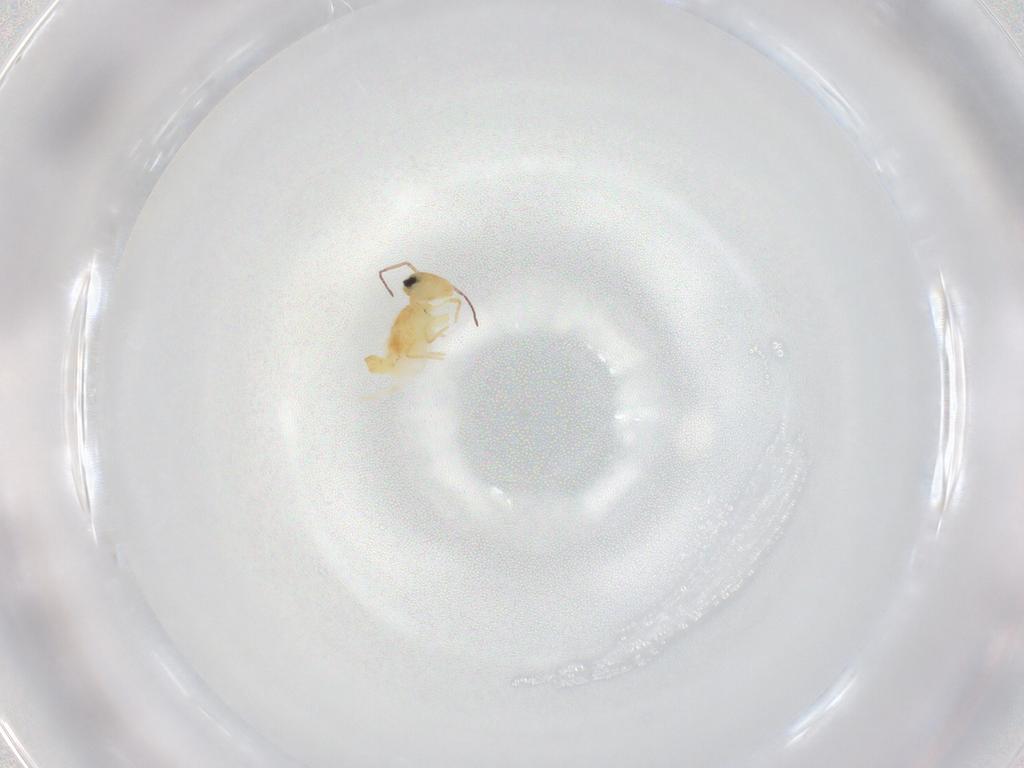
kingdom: Animalia
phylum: Arthropoda
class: Collembola
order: Symphypleona
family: Bourletiellidae
